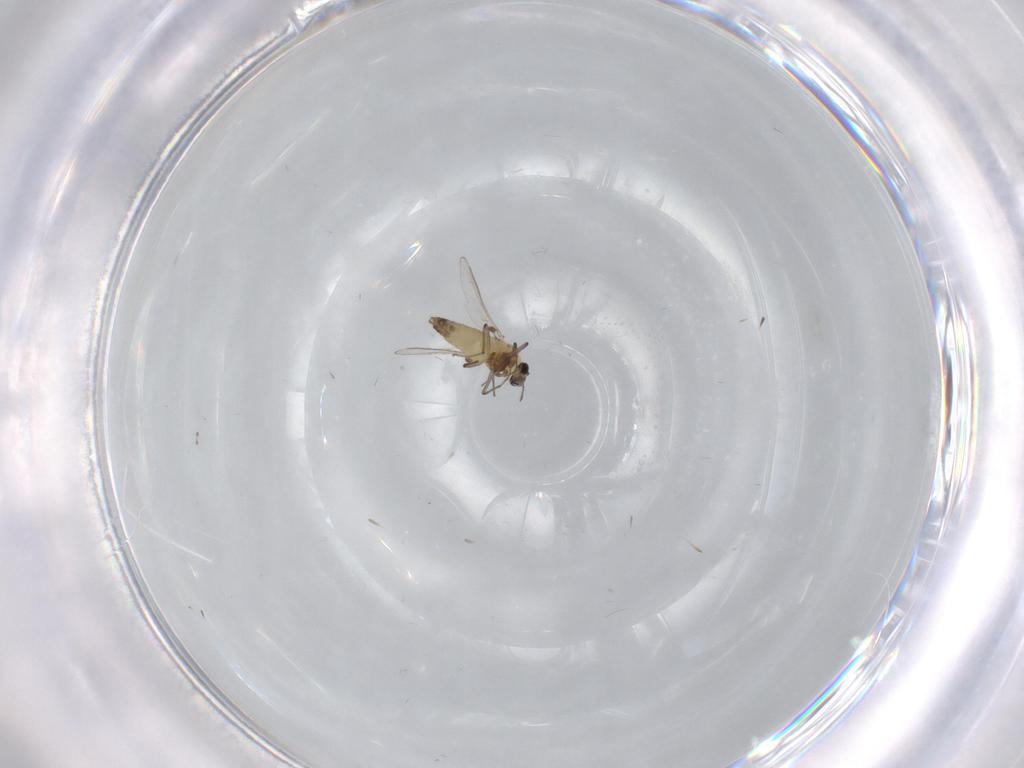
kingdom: Animalia
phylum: Arthropoda
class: Insecta
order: Diptera
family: Chironomidae
